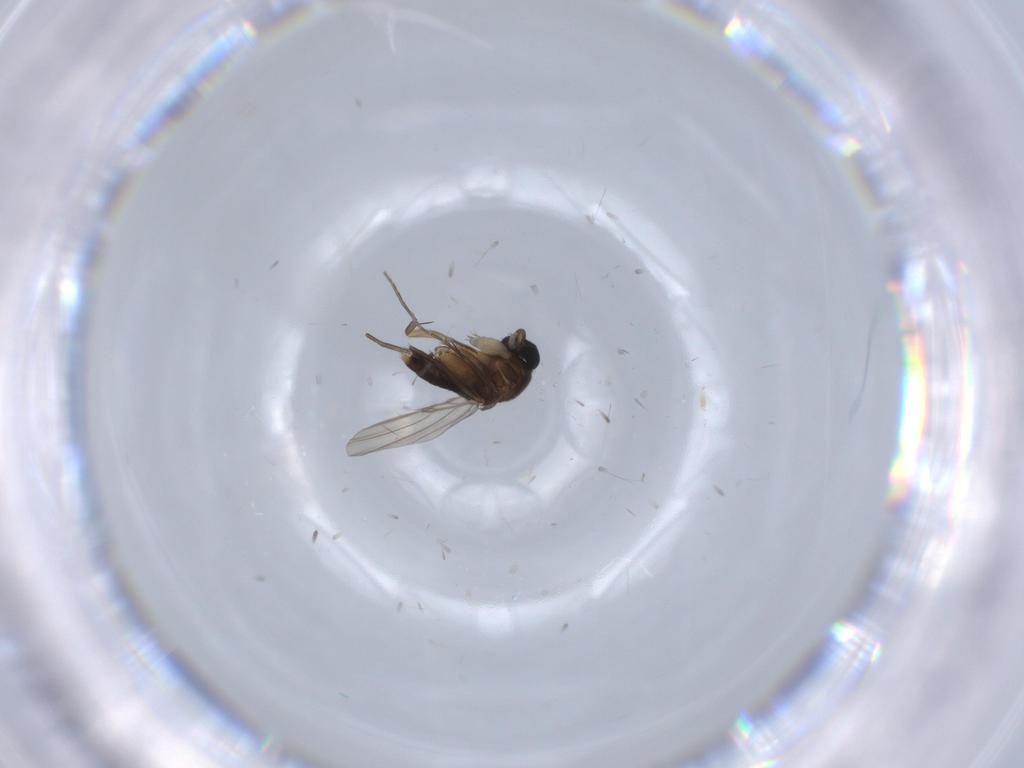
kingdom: Animalia
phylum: Arthropoda
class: Insecta
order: Diptera
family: Phoridae
